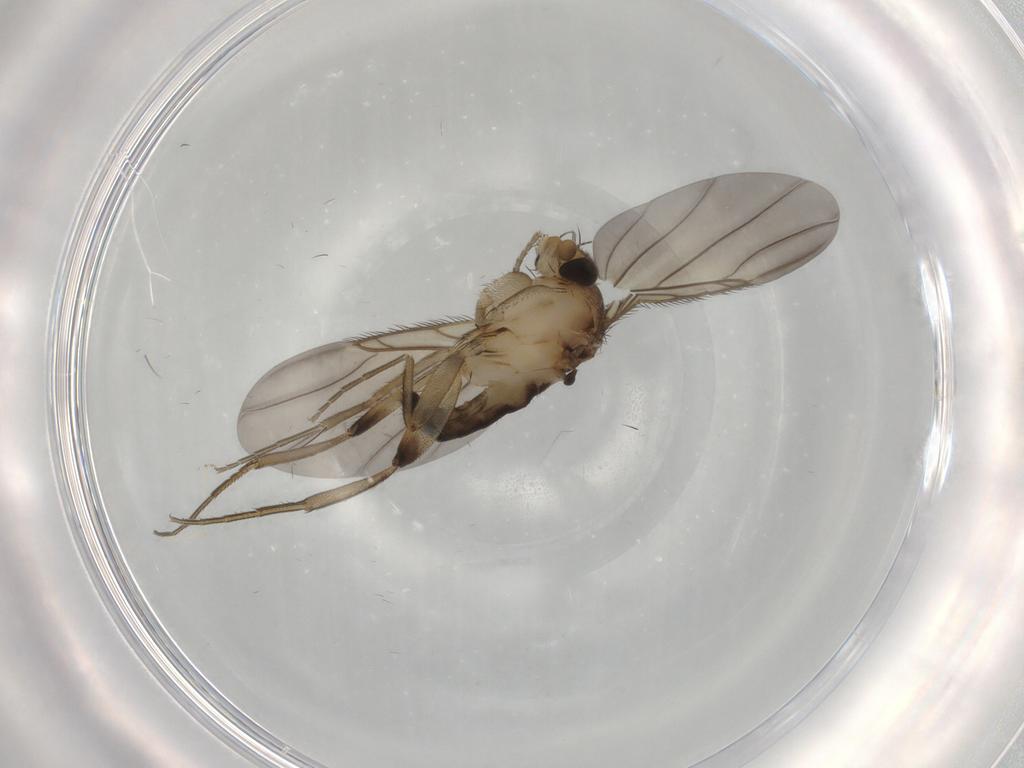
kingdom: Animalia
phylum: Arthropoda
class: Insecta
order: Diptera
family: Phoridae
